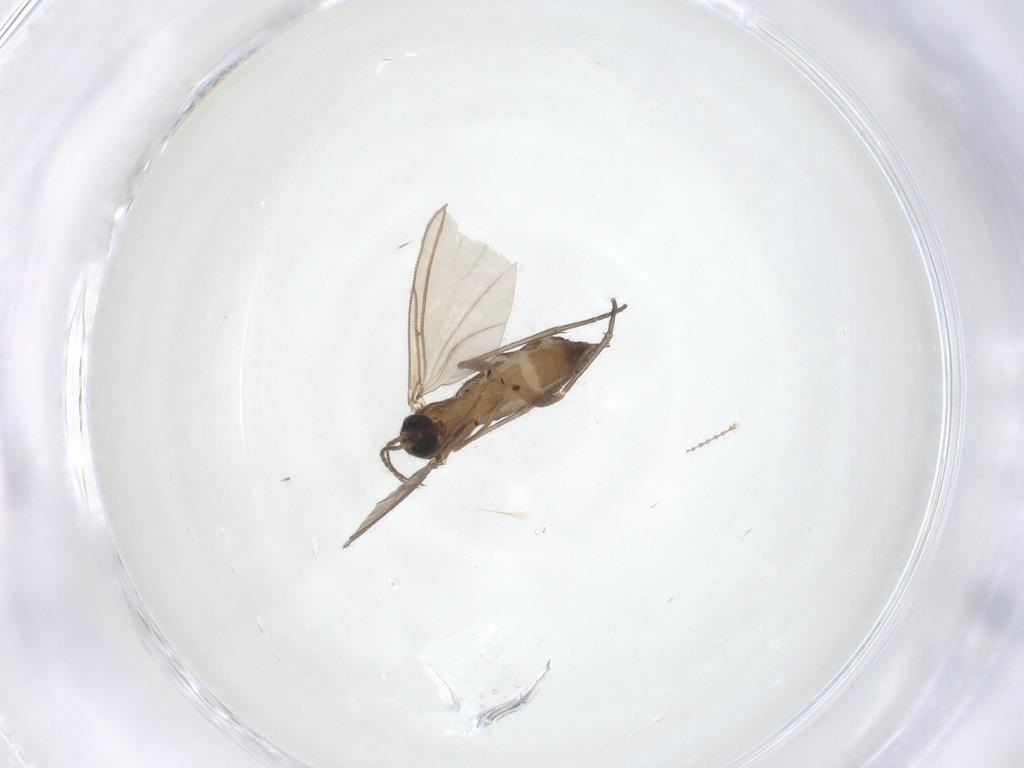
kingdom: Animalia
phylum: Arthropoda
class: Insecta
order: Diptera
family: Sciaridae
